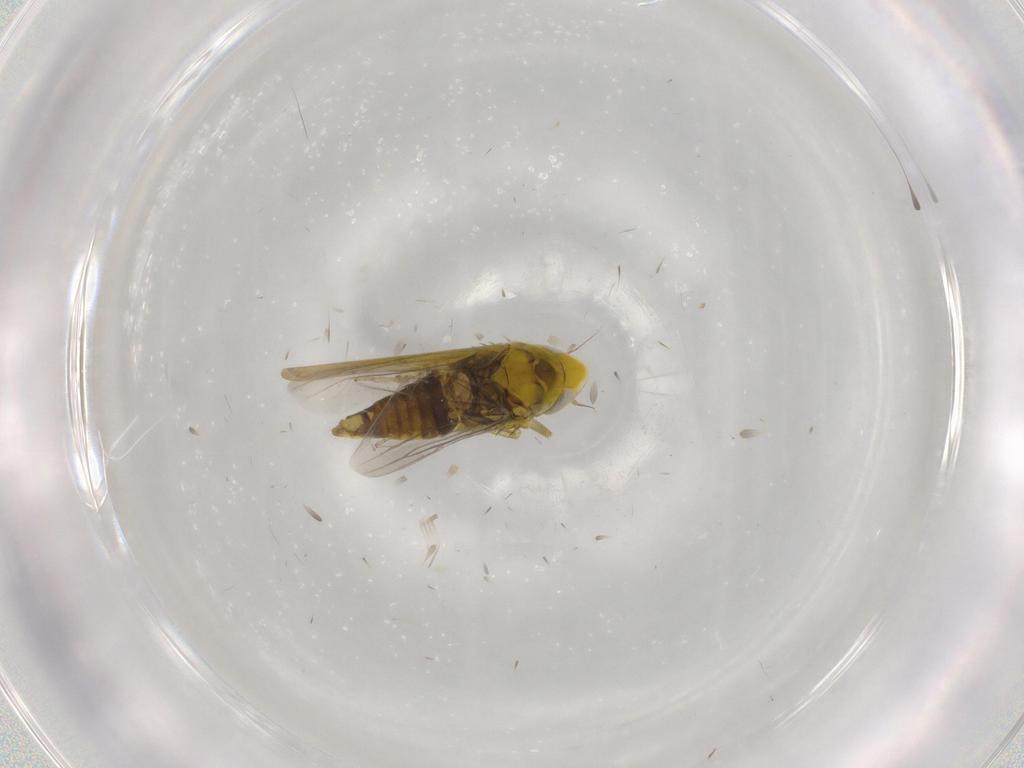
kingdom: Animalia
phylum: Arthropoda
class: Insecta
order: Hemiptera
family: Cicadellidae
